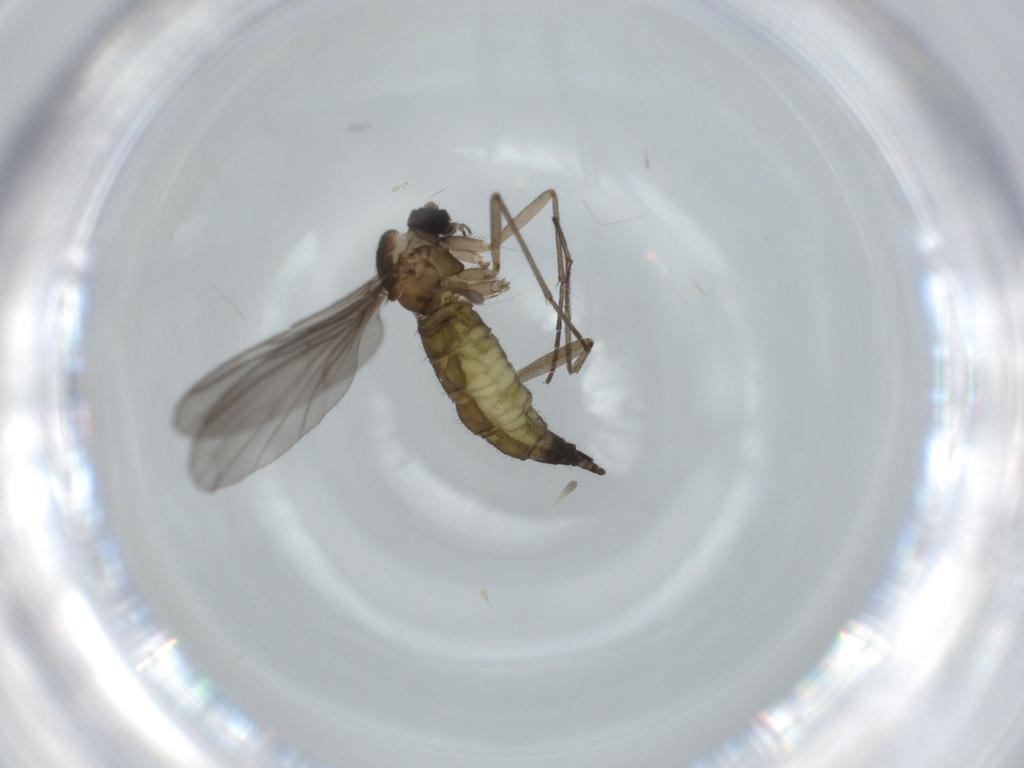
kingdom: Animalia
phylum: Arthropoda
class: Insecta
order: Diptera
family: Sciaridae
